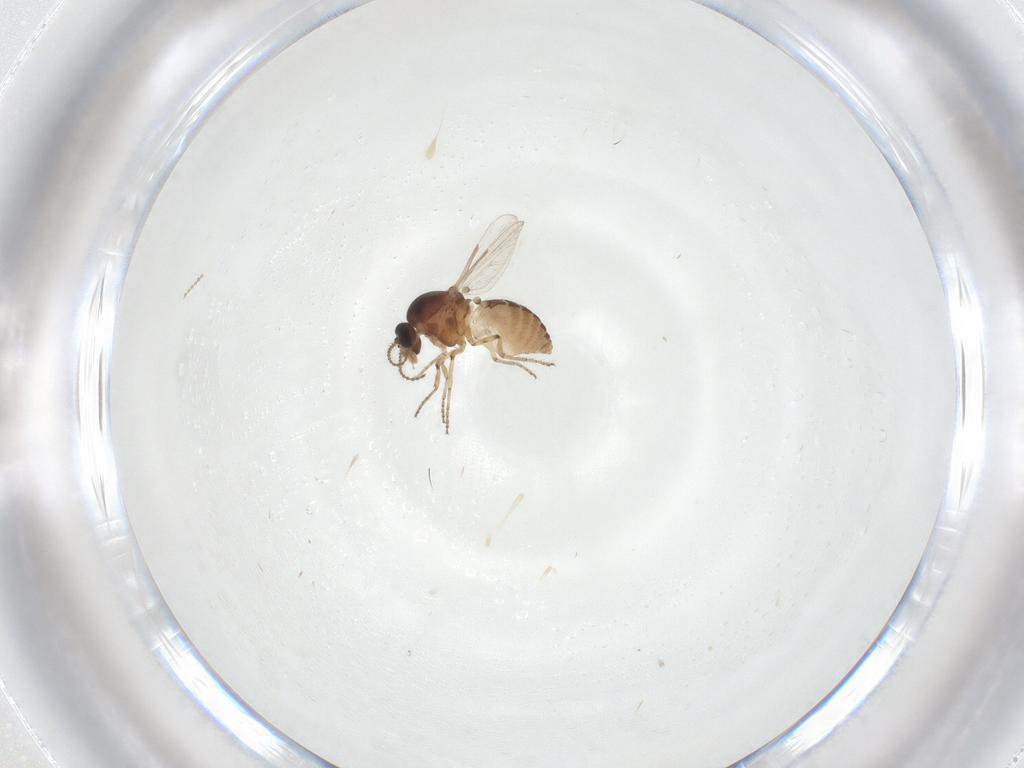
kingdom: Animalia
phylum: Arthropoda
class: Insecta
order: Diptera
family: Ceratopogonidae
